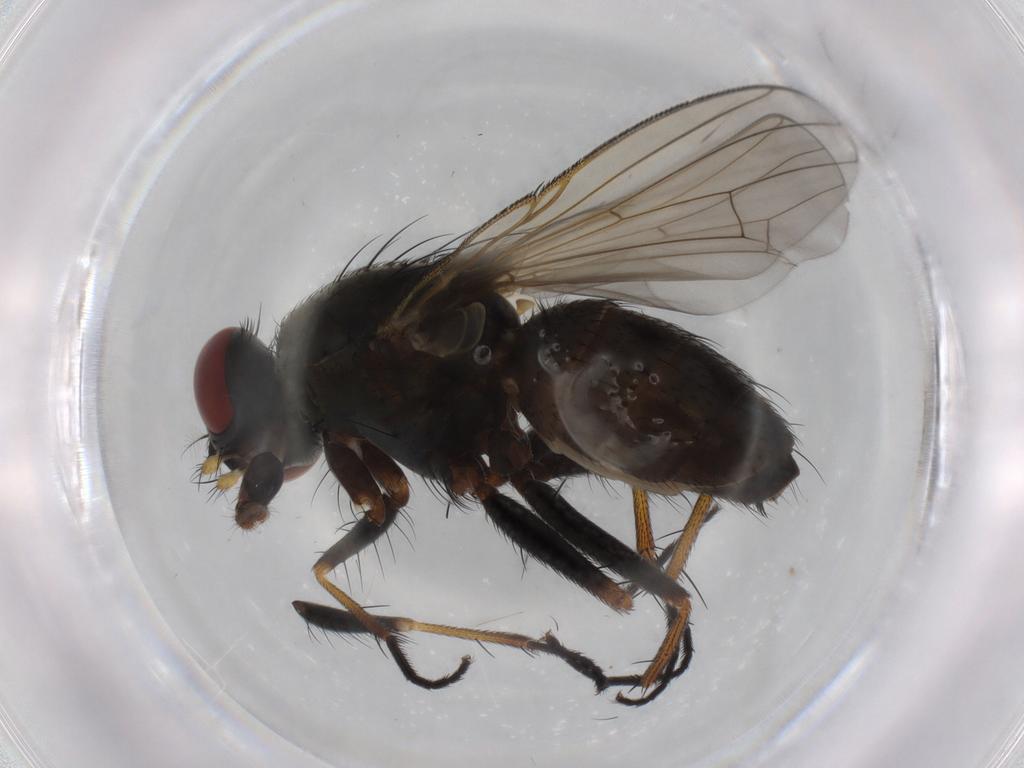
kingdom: Animalia
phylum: Arthropoda
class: Insecta
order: Diptera
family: Muscidae
